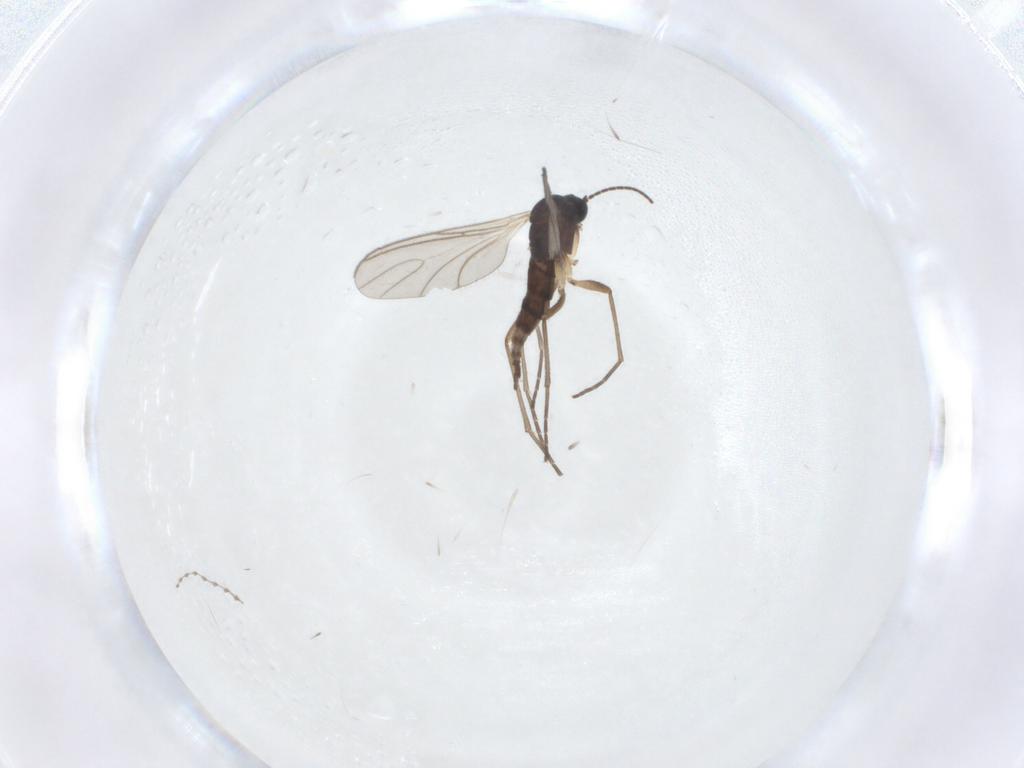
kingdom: Animalia
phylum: Arthropoda
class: Insecta
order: Diptera
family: Sciaridae
